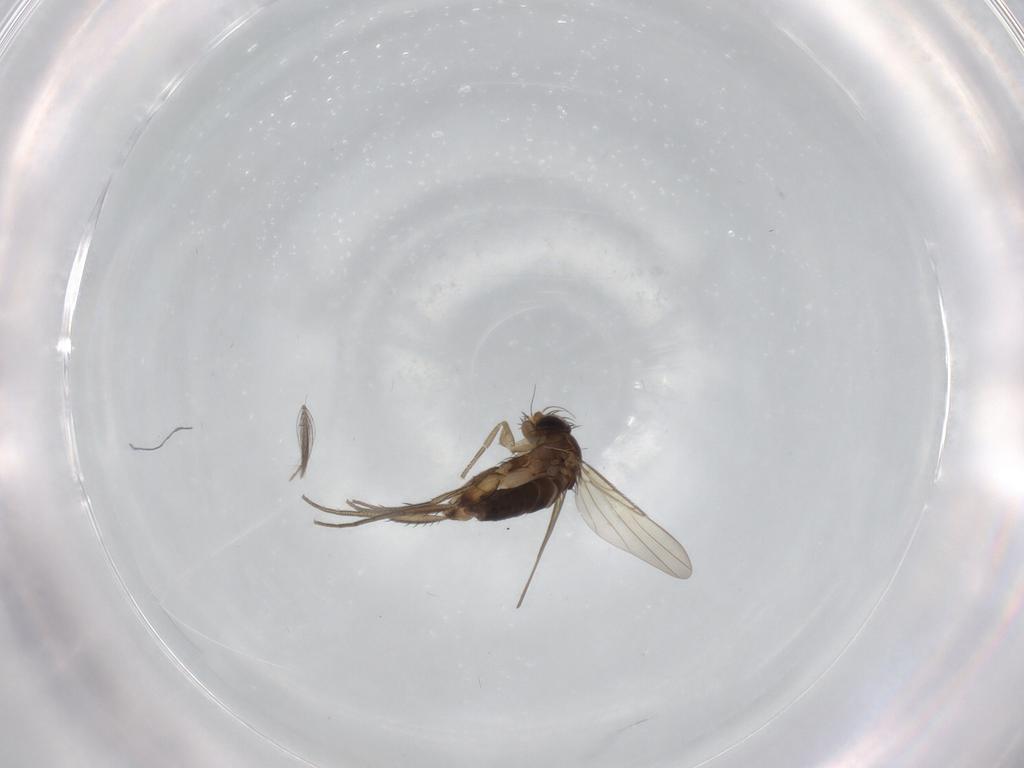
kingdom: Animalia
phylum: Arthropoda
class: Insecta
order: Diptera
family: Ceratopogonidae
